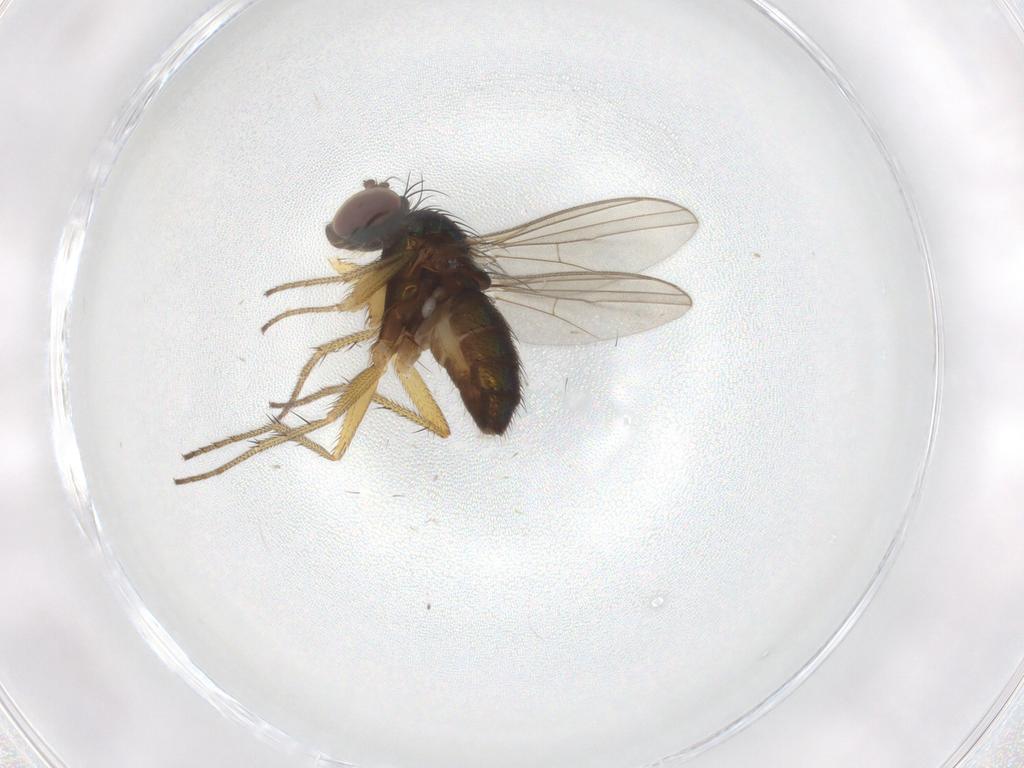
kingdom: Animalia
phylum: Arthropoda
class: Insecta
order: Diptera
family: Dolichopodidae
